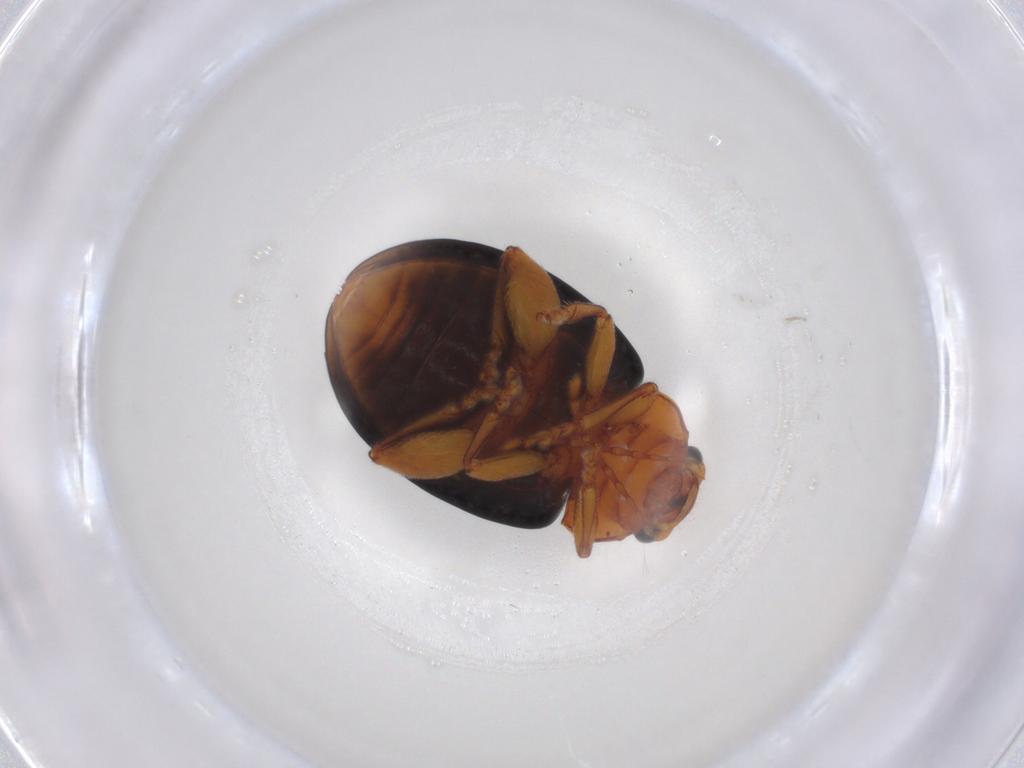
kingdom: Animalia
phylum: Arthropoda
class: Insecta
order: Coleoptera
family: Chrysomelidae
